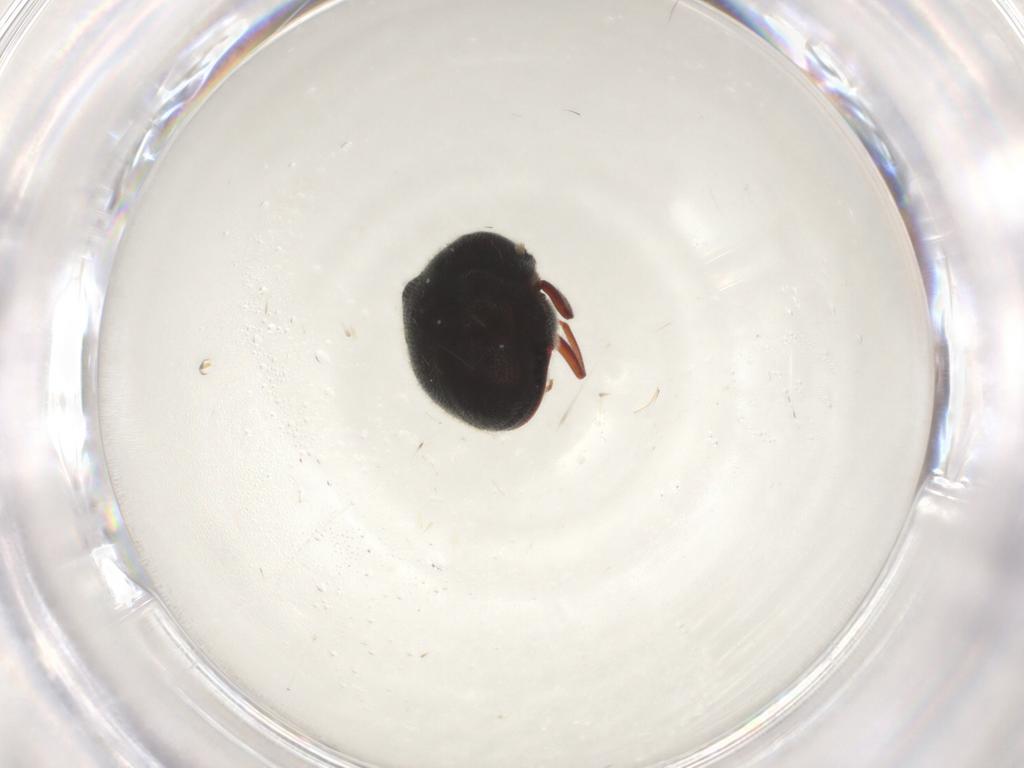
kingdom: Animalia
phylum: Arthropoda
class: Insecta
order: Coleoptera
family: Ptinidae
